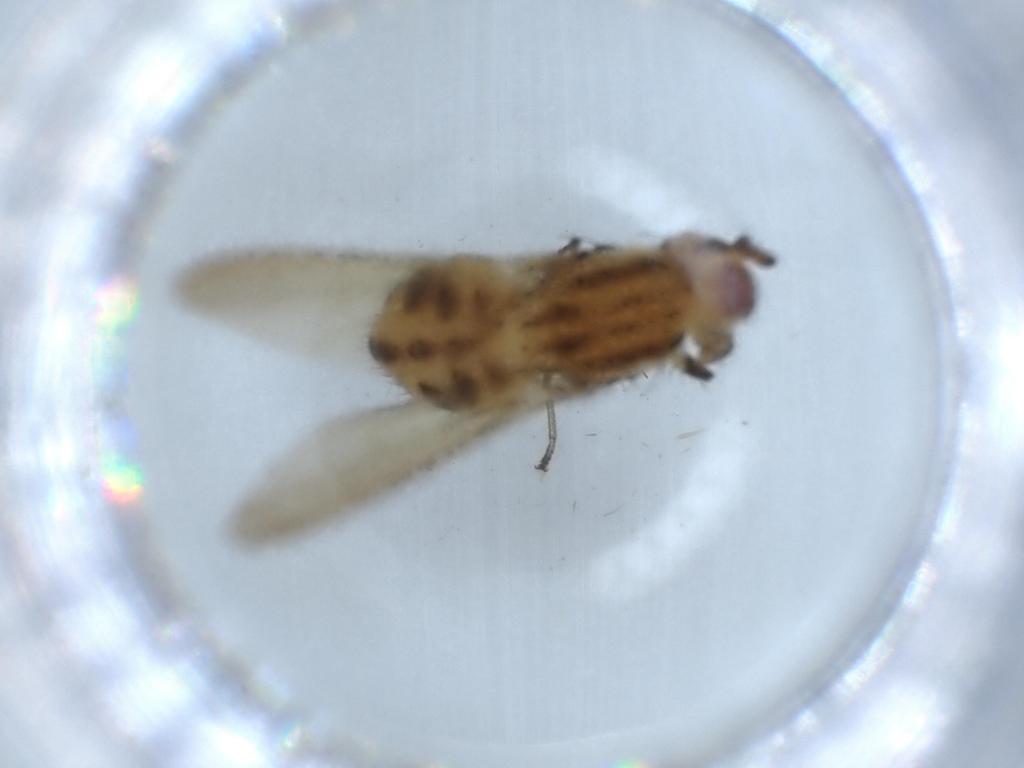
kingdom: Animalia
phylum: Arthropoda
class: Insecta
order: Diptera
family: Lauxaniidae
